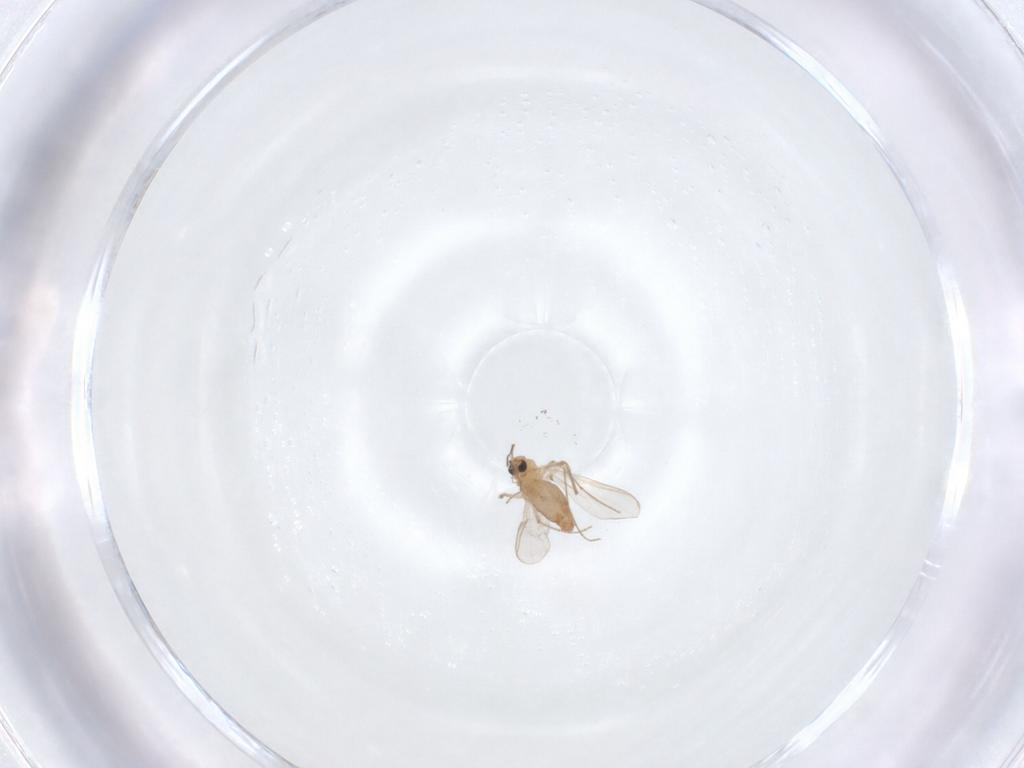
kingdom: Animalia
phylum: Arthropoda
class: Insecta
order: Diptera
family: Chironomidae
